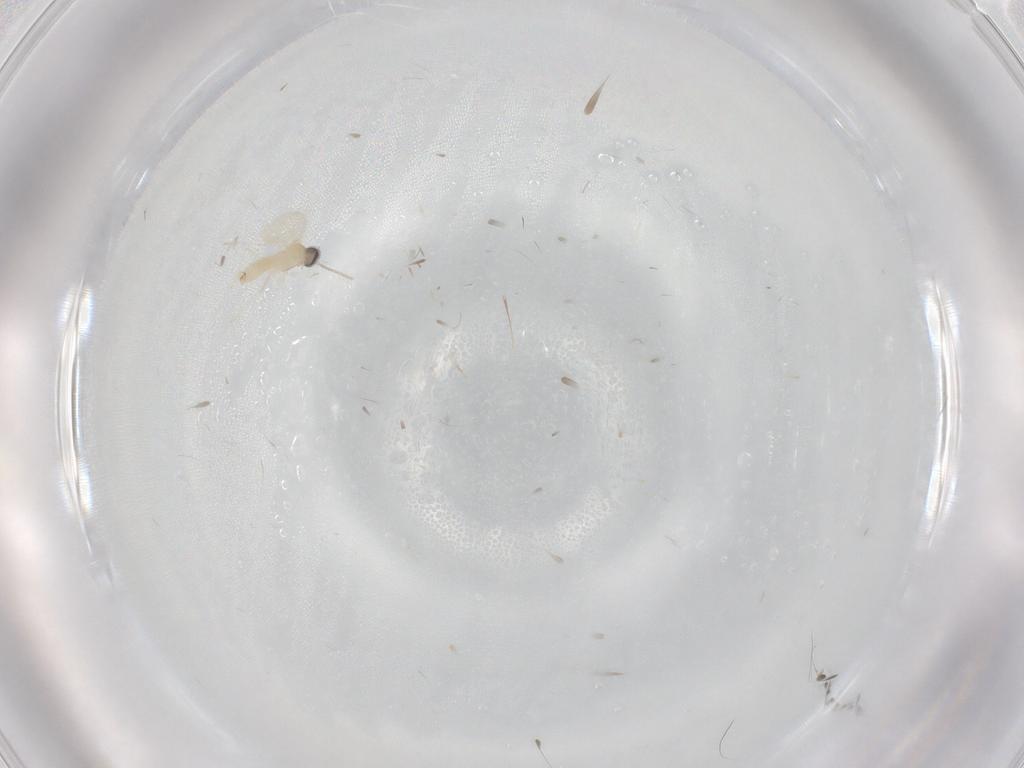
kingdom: Animalia
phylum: Arthropoda
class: Insecta
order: Diptera
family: Cecidomyiidae
